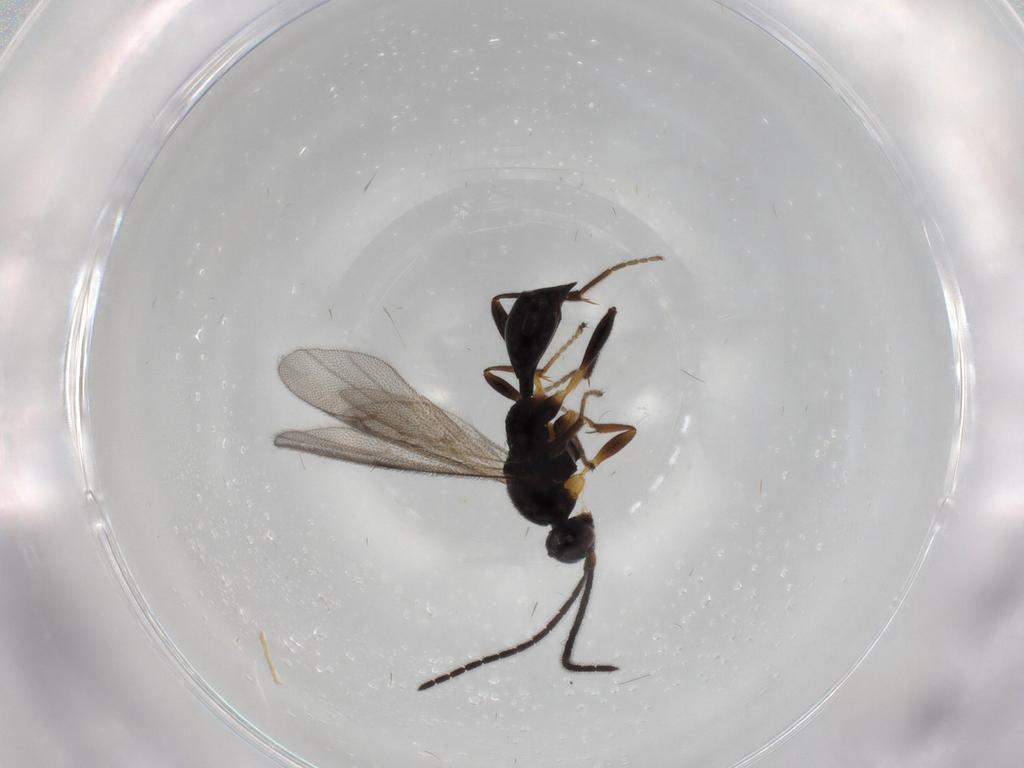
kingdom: Animalia
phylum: Arthropoda
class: Insecta
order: Hymenoptera
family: Proctotrupidae
